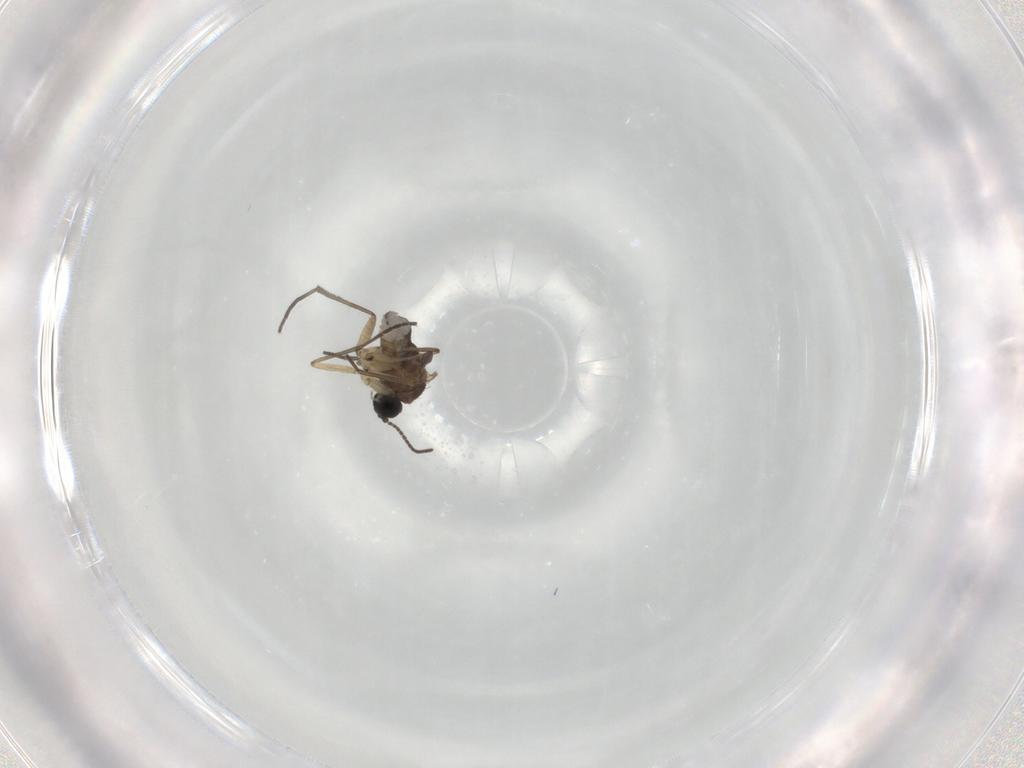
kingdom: Animalia
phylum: Arthropoda
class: Insecta
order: Diptera
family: Sciaridae
